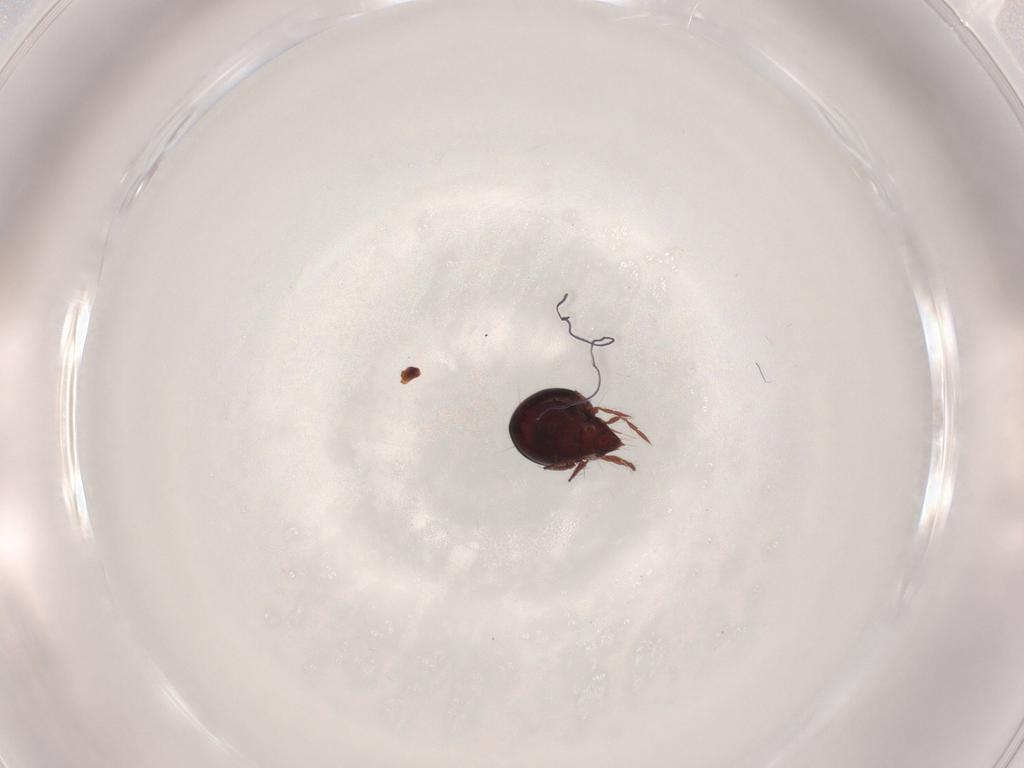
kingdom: Animalia
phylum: Arthropoda
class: Arachnida
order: Sarcoptiformes
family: Ceratoppiidae
